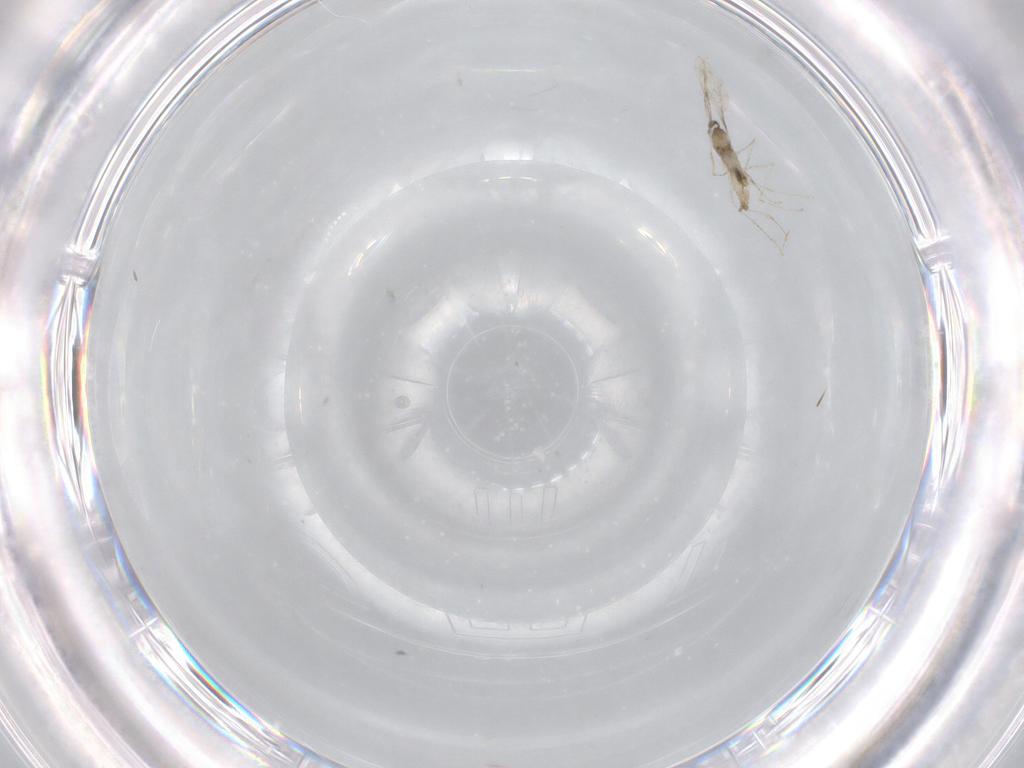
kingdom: Animalia
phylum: Arthropoda
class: Insecta
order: Diptera
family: Cecidomyiidae
